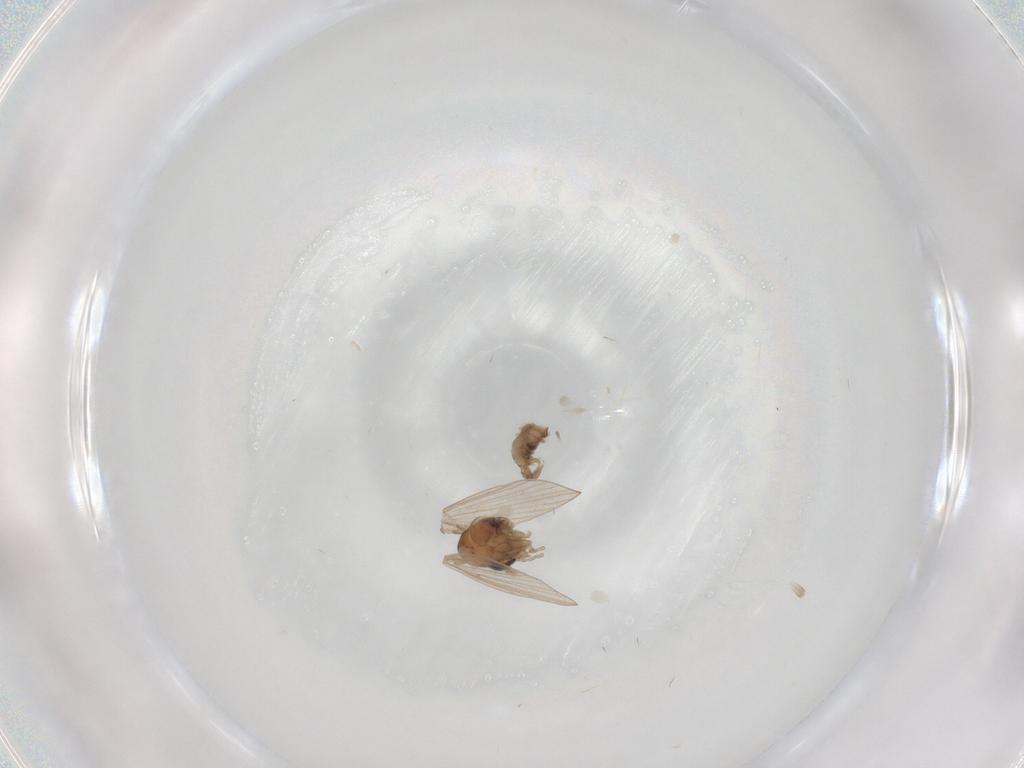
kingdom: Animalia
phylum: Arthropoda
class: Insecta
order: Diptera
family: Psychodidae
